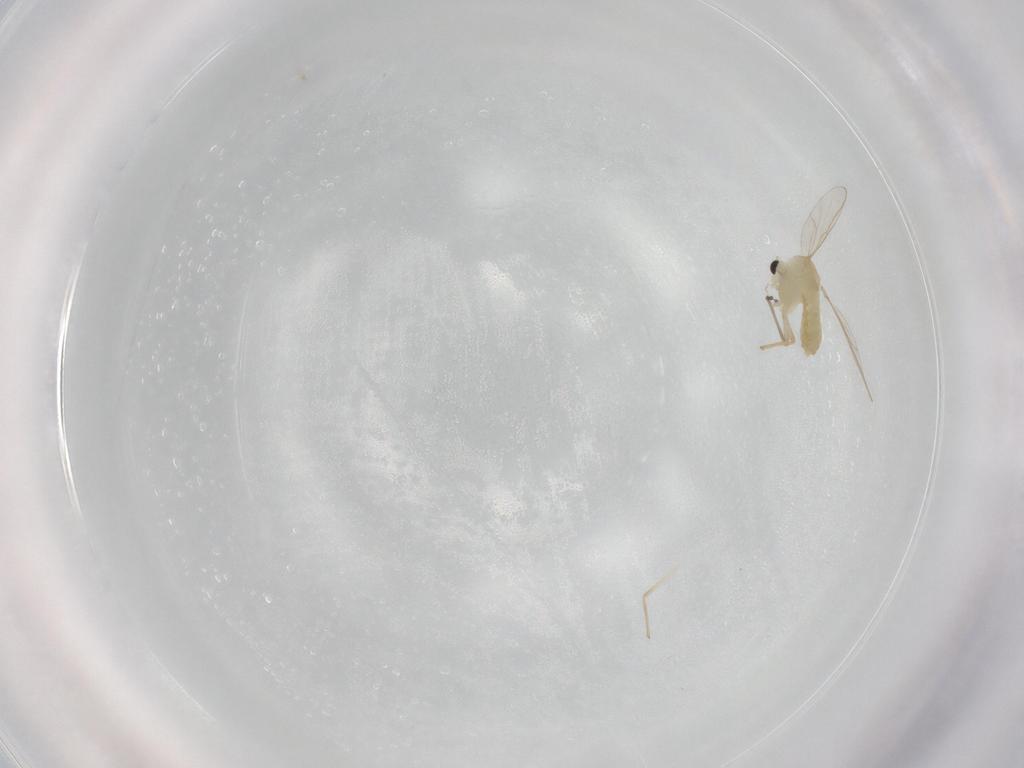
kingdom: Animalia
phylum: Arthropoda
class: Insecta
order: Diptera
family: Chironomidae
